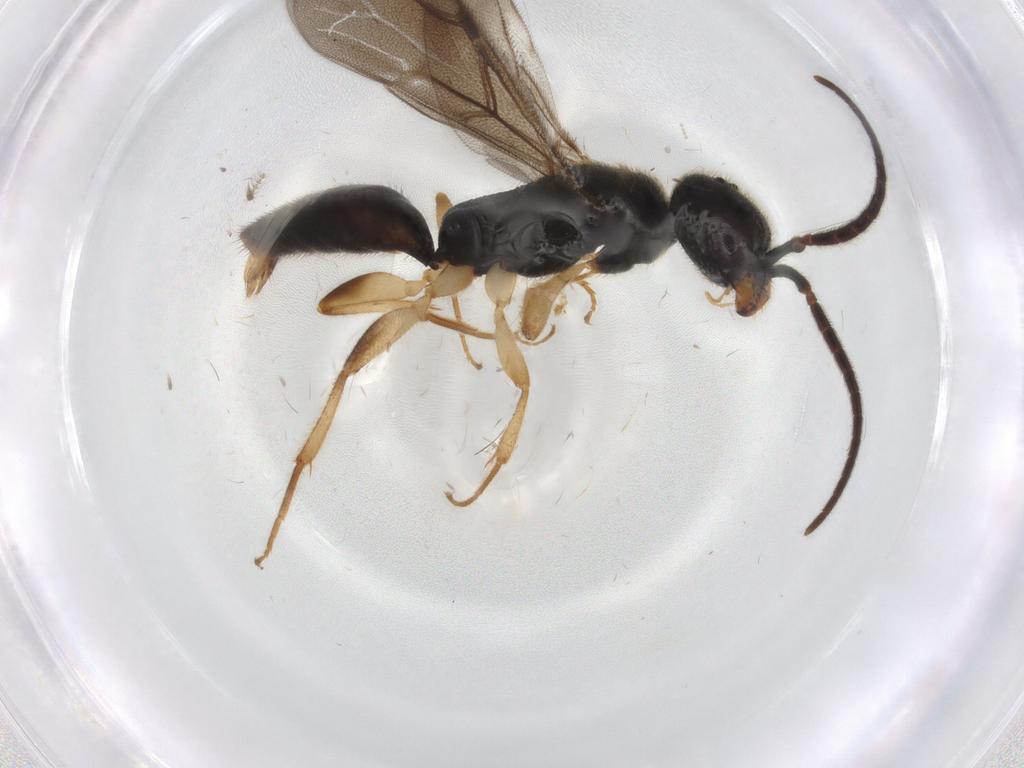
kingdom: Animalia
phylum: Arthropoda
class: Insecta
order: Hymenoptera
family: Bethylidae
